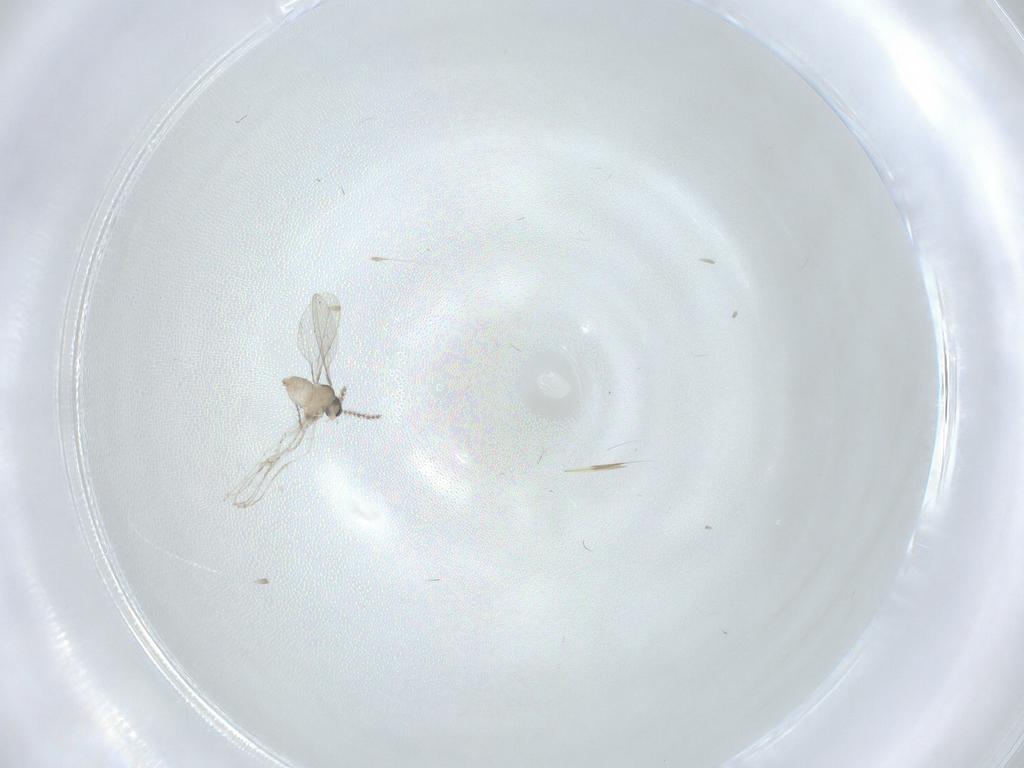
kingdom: Animalia
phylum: Arthropoda
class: Insecta
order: Diptera
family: Cecidomyiidae
